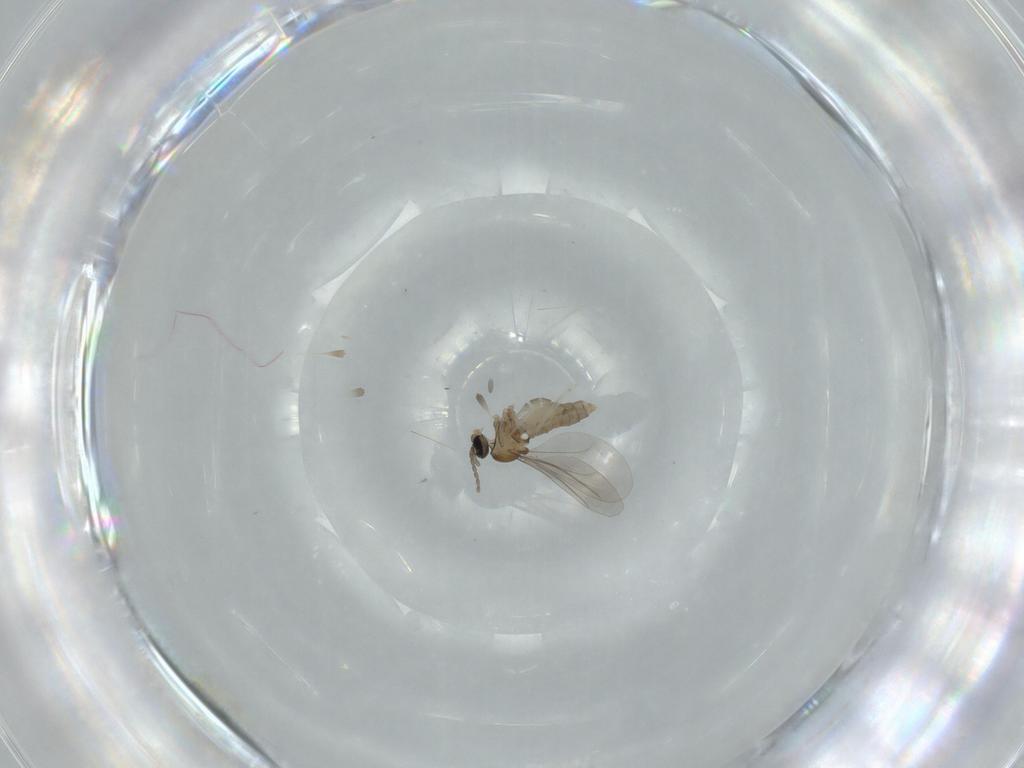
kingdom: Animalia
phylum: Arthropoda
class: Insecta
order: Diptera
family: Cecidomyiidae
